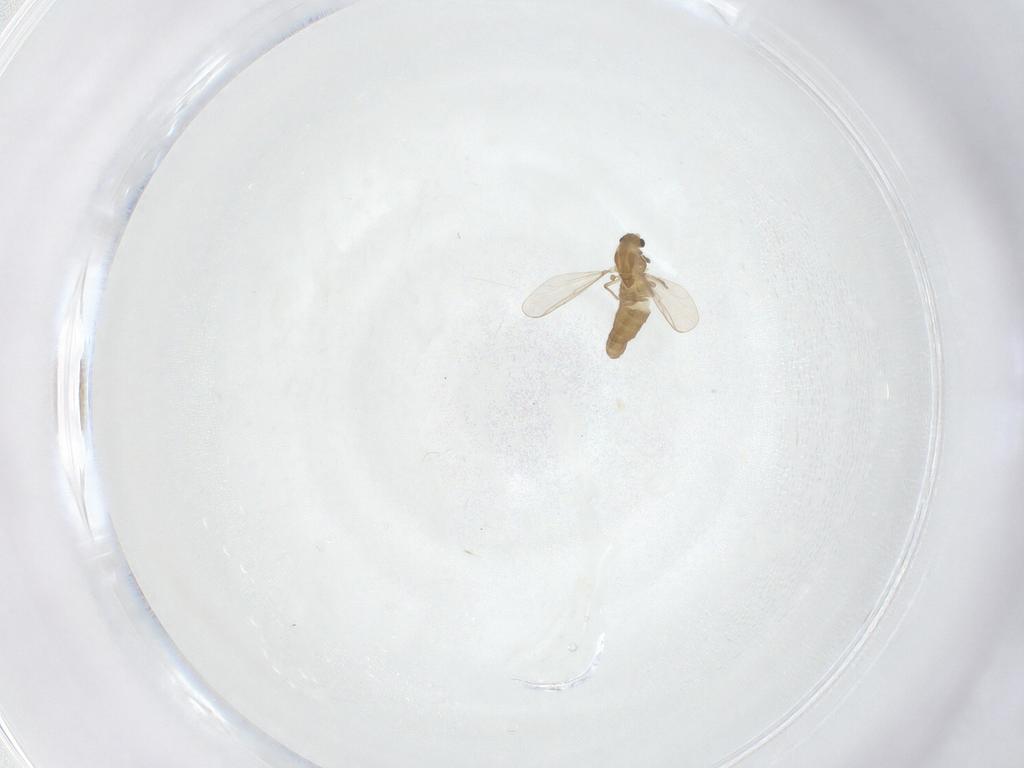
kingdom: Animalia
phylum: Arthropoda
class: Insecta
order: Diptera
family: Chironomidae
